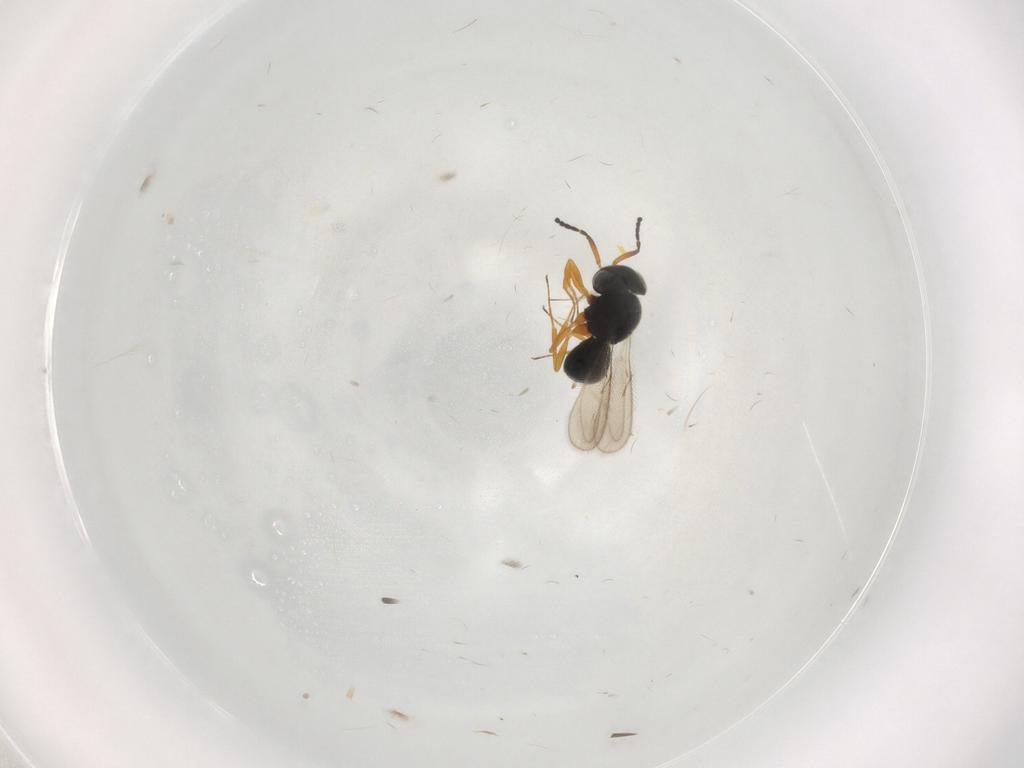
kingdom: Animalia
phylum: Arthropoda
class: Insecta
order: Hymenoptera
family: Scelionidae
